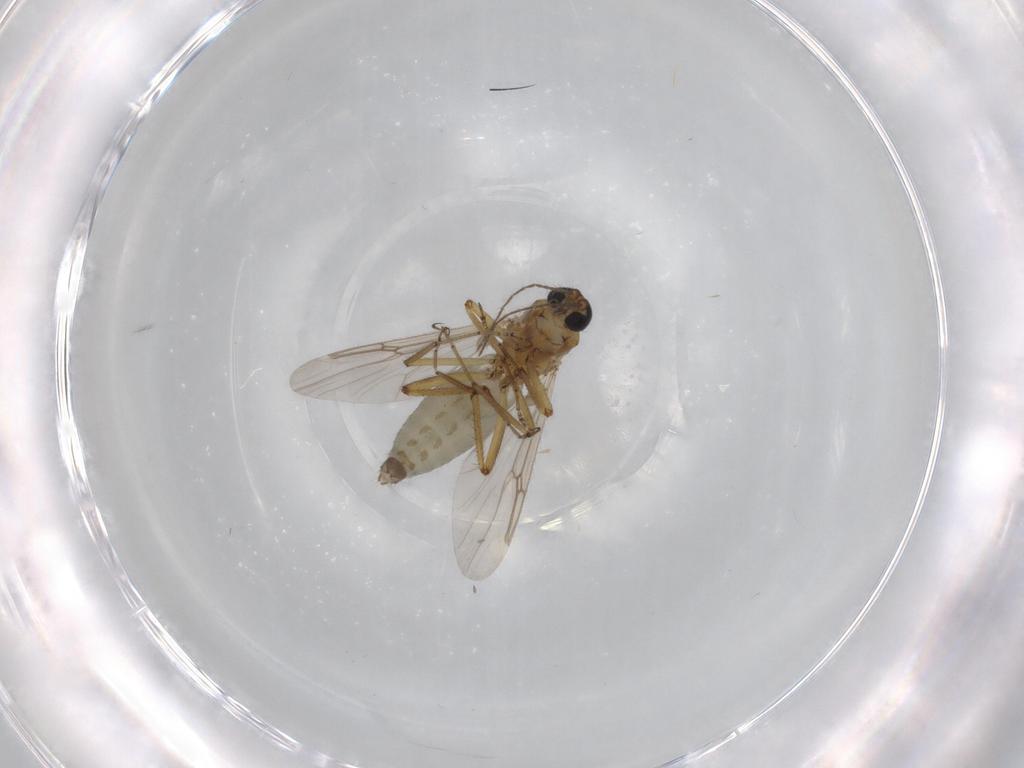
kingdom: Animalia
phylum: Arthropoda
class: Insecta
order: Diptera
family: Ceratopogonidae
